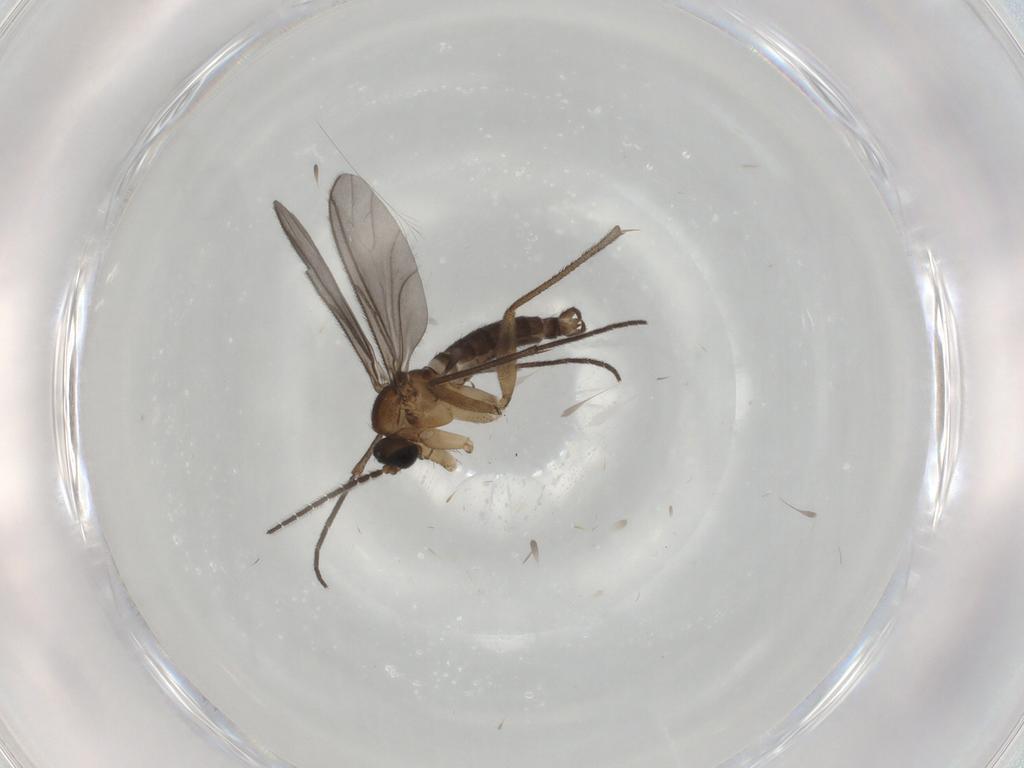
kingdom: Animalia
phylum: Arthropoda
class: Insecta
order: Diptera
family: Sciaridae
